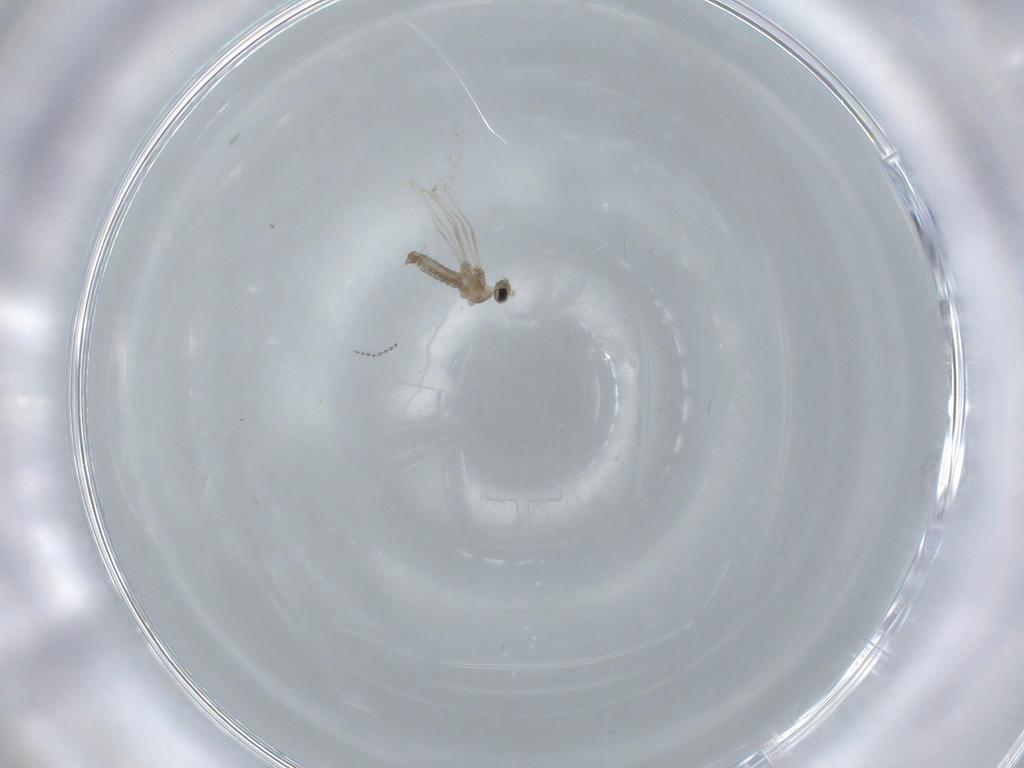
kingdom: Animalia
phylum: Arthropoda
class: Insecta
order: Diptera
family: Cecidomyiidae
